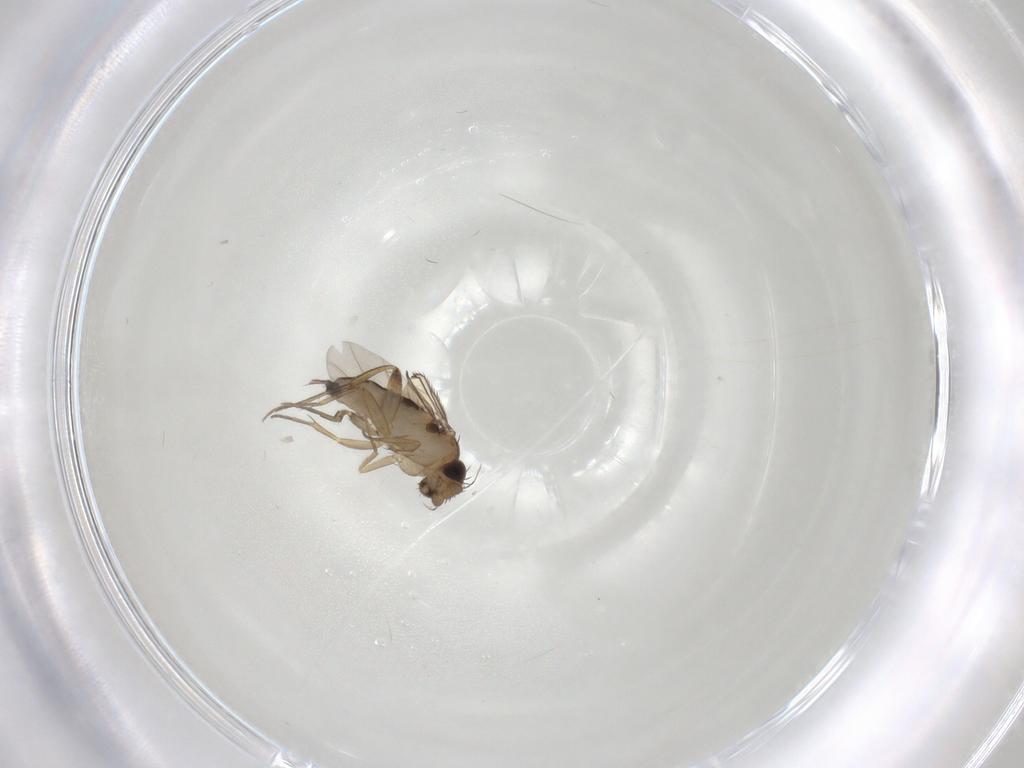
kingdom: Animalia
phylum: Arthropoda
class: Insecta
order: Diptera
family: Phoridae
